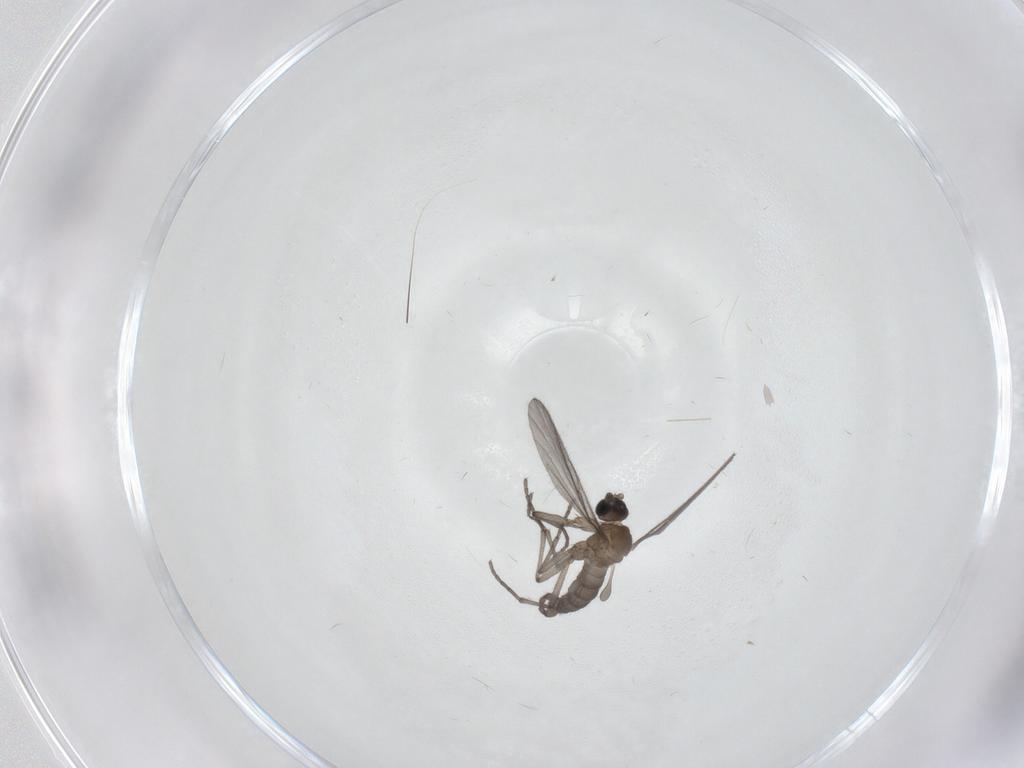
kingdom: Animalia
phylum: Arthropoda
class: Insecta
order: Diptera
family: Sciaridae
